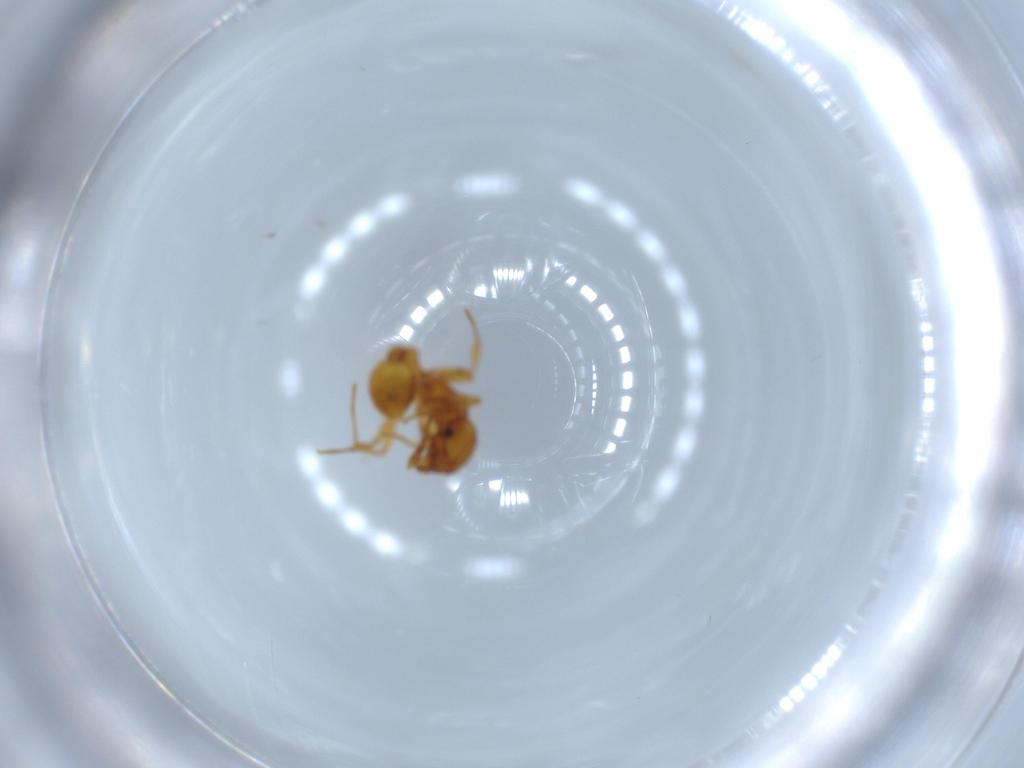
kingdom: Animalia
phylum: Arthropoda
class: Insecta
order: Hymenoptera
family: Formicidae
